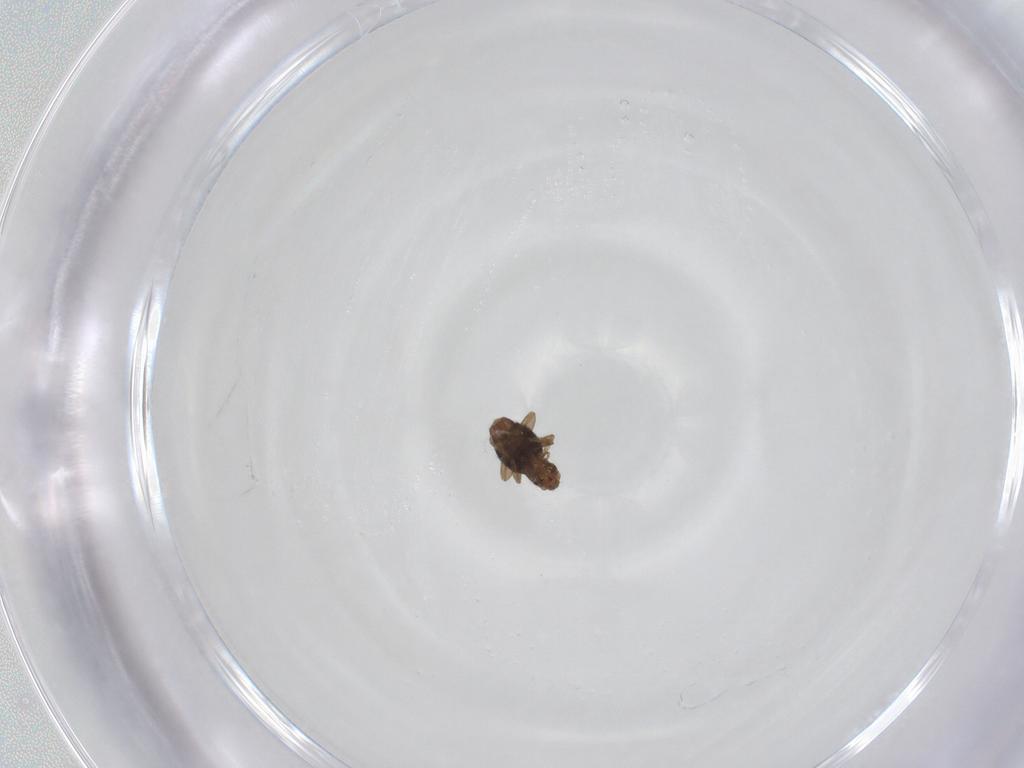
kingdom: Animalia
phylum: Arthropoda
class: Insecta
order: Diptera
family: Phoridae
